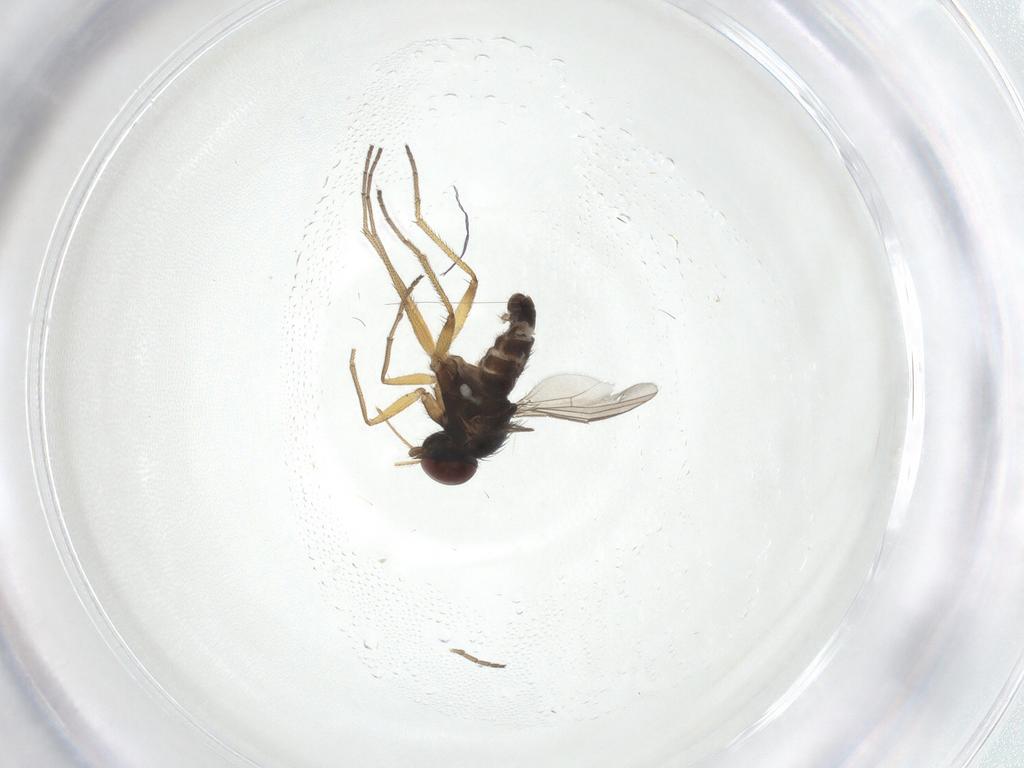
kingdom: Animalia
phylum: Arthropoda
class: Insecta
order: Diptera
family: Dolichopodidae
